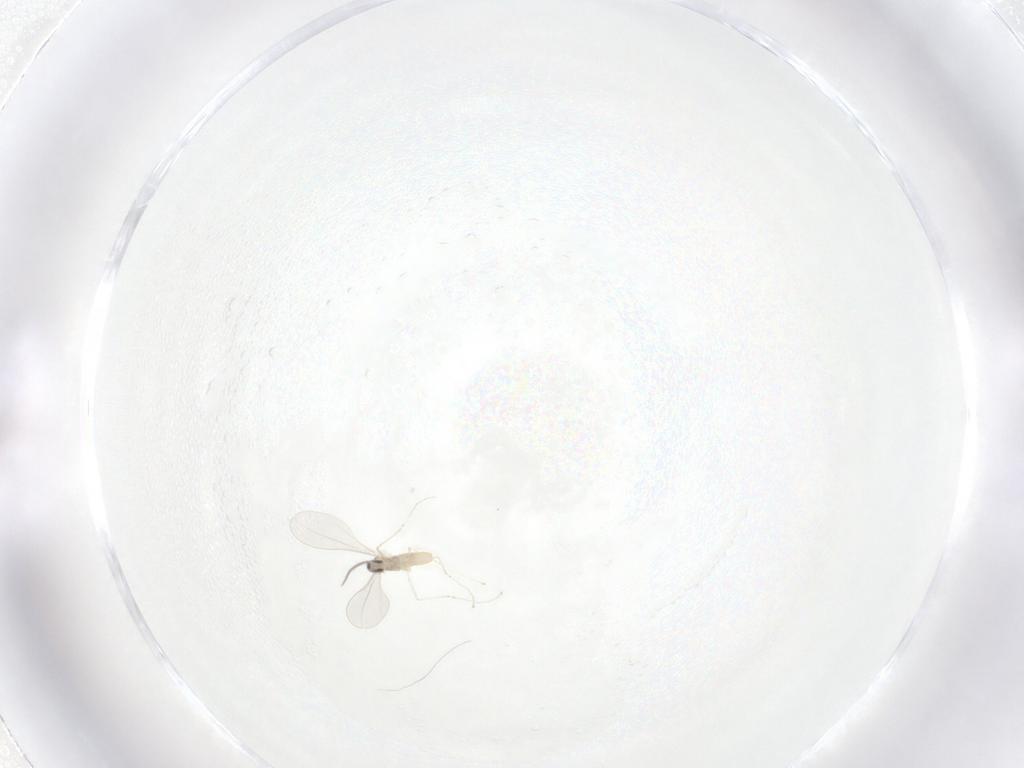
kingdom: Animalia
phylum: Arthropoda
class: Insecta
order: Diptera
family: Cecidomyiidae
